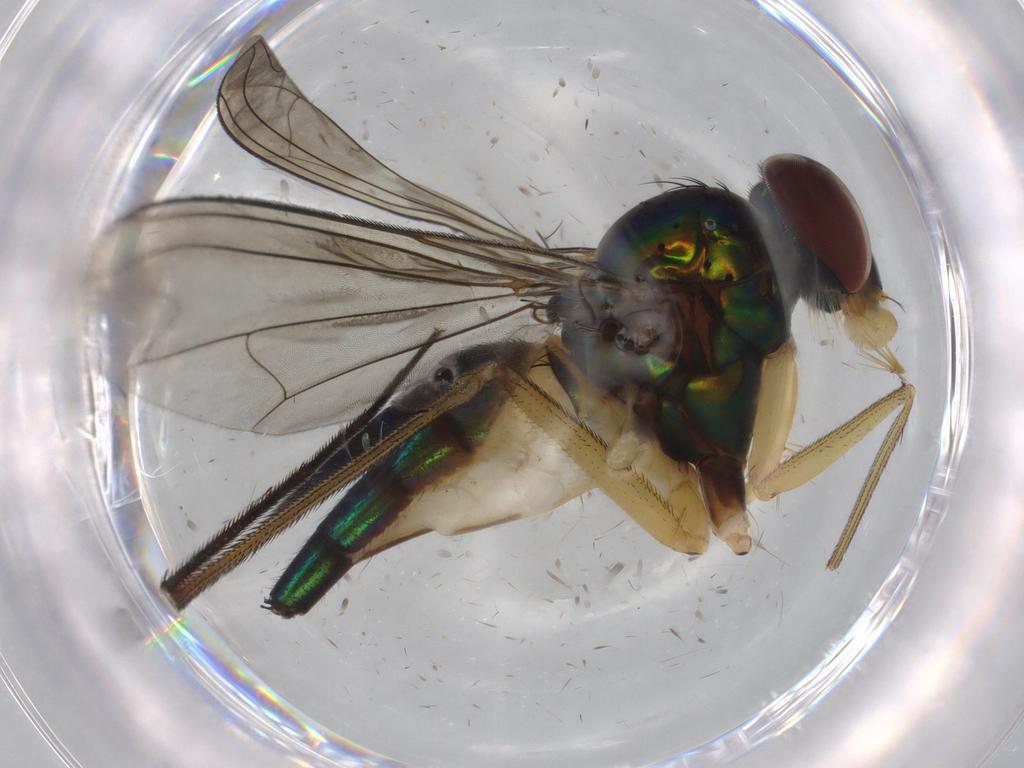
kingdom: Animalia
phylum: Arthropoda
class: Insecta
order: Diptera
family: Dolichopodidae
